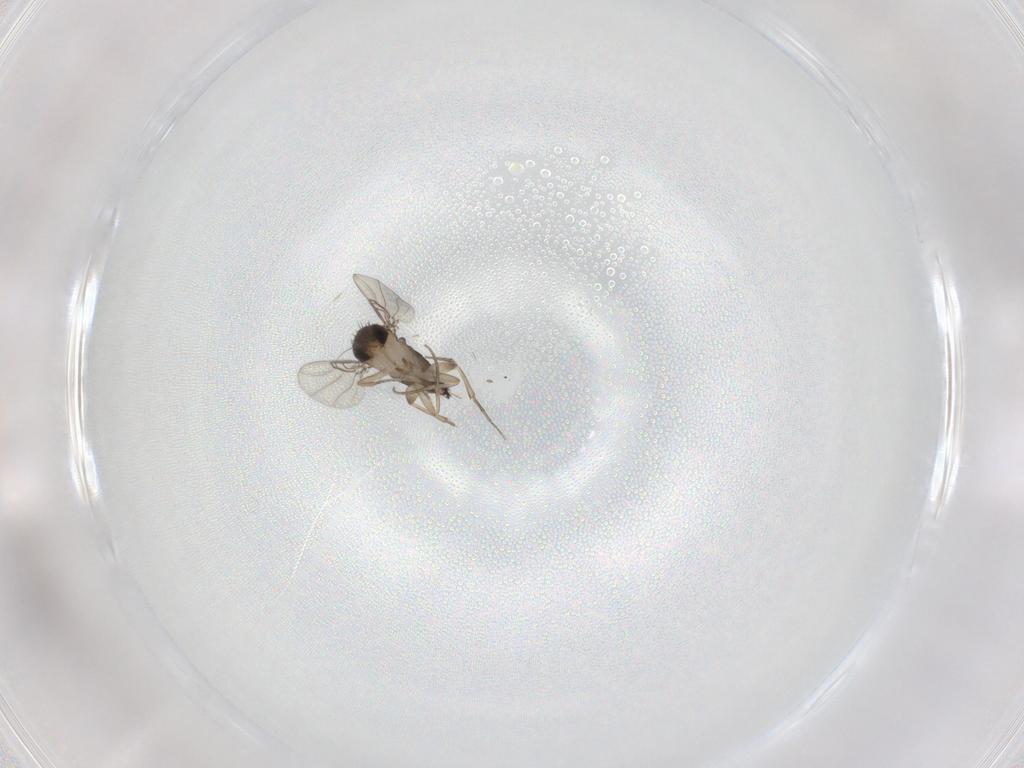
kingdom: Animalia
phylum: Arthropoda
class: Insecta
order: Diptera
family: Phoridae
